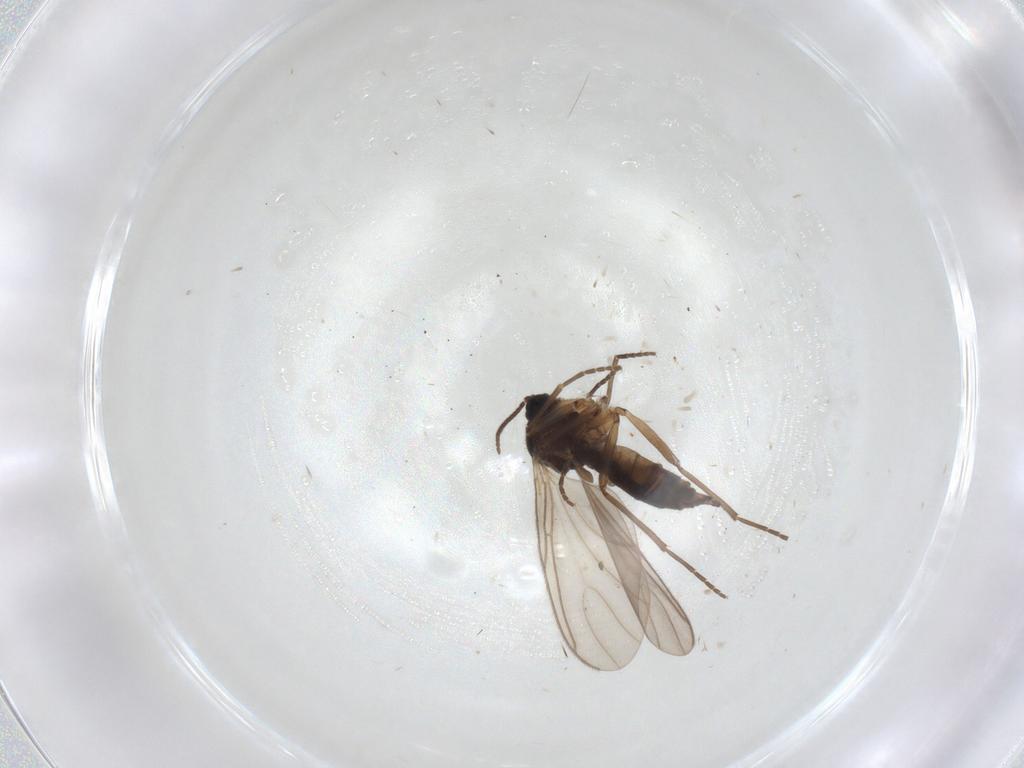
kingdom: Animalia
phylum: Arthropoda
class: Insecta
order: Diptera
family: Sciaridae
